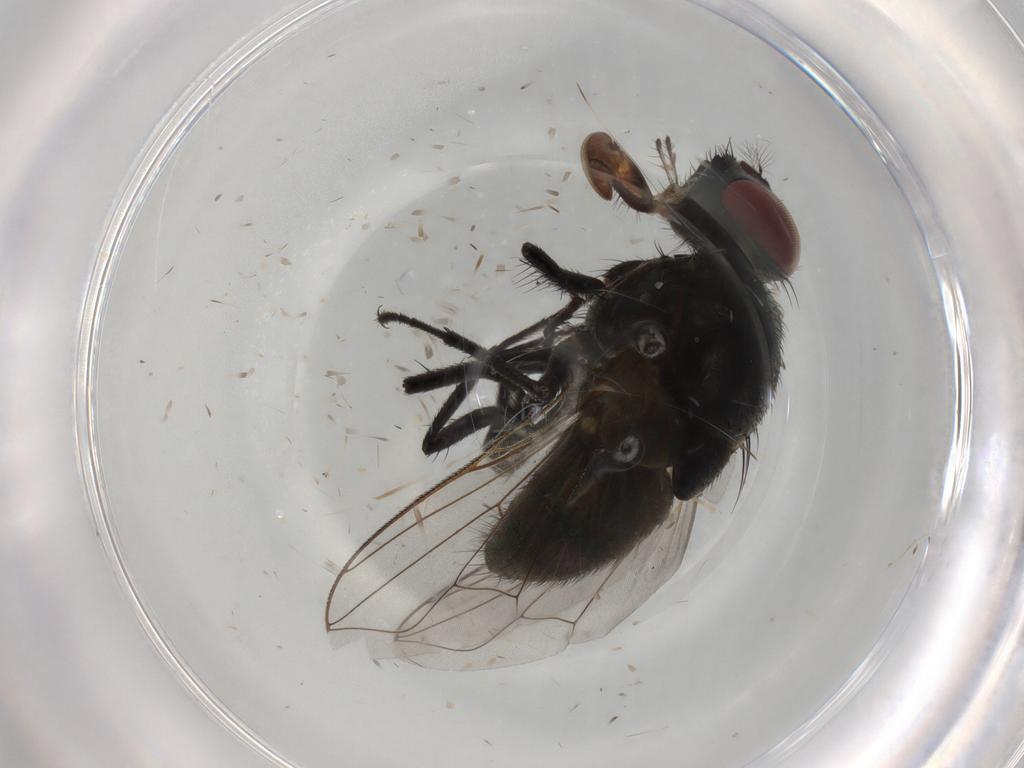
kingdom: Animalia
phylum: Arthropoda
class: Insecta
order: Diptera
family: Muscidae
